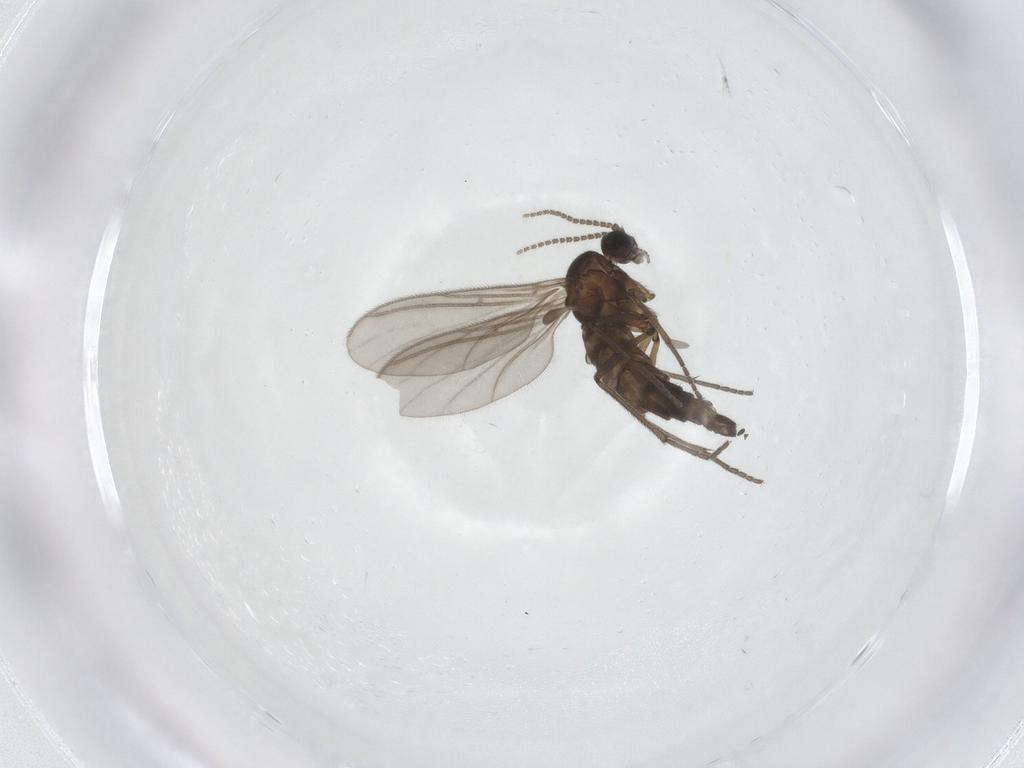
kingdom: Animalia
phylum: Arthropoda
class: Insecta
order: Diptera
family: Sciaridae
